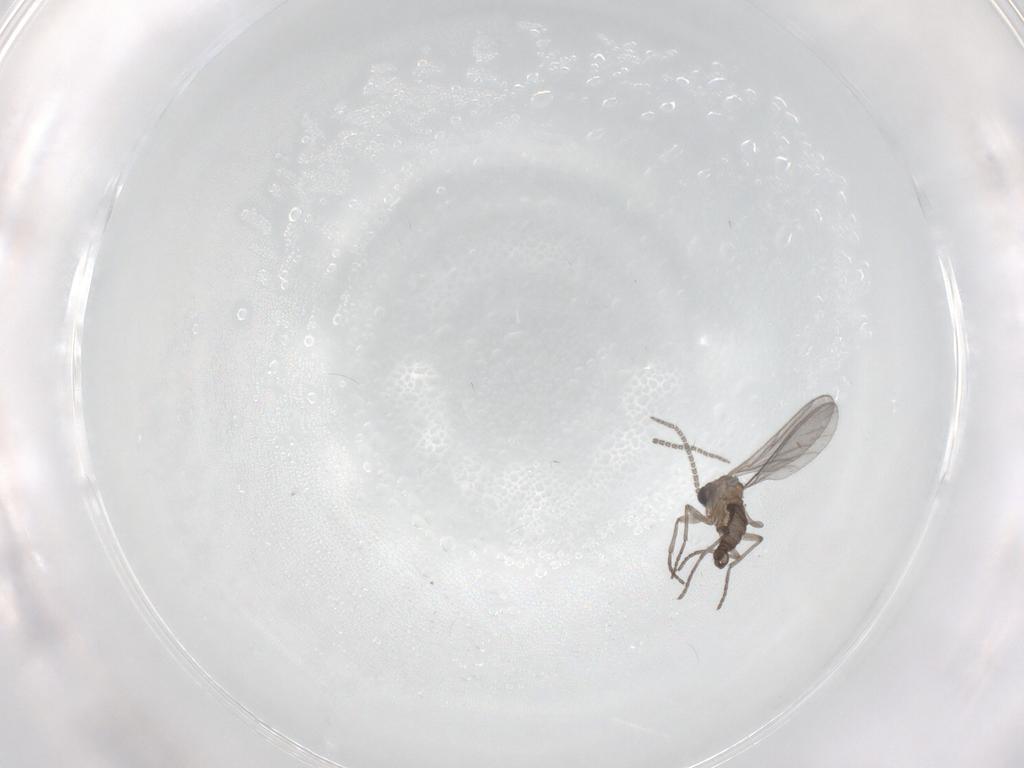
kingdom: Animalia
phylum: Arthropoda
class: Insecta
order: Diptera
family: Sciaridae
